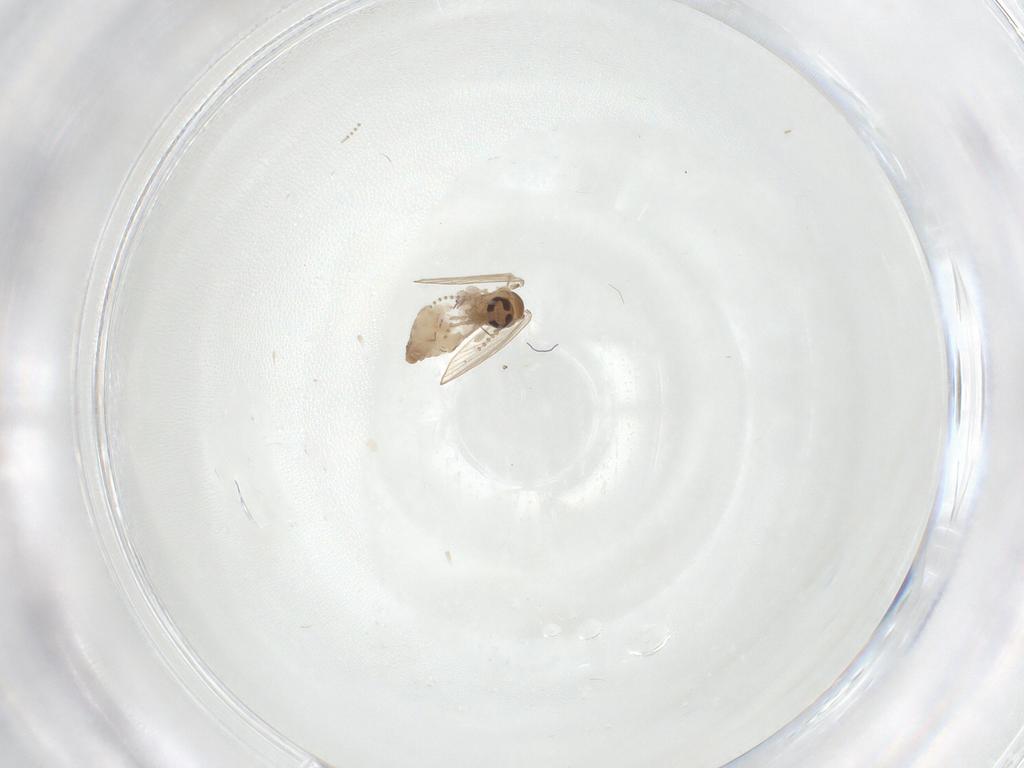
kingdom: Animalia
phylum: Arthropoda
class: Insecta
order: Diptera
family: Psychodidae
